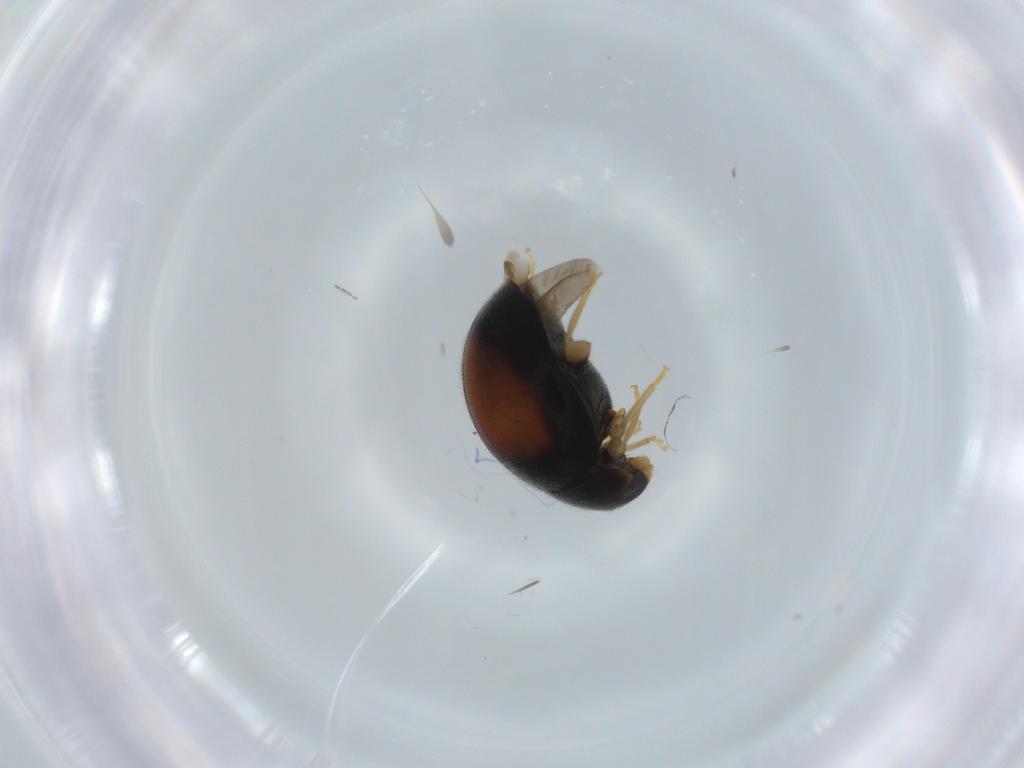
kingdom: Animalia
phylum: Arthropoda
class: Insecta
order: Coleoptera
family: Coccinellidae
